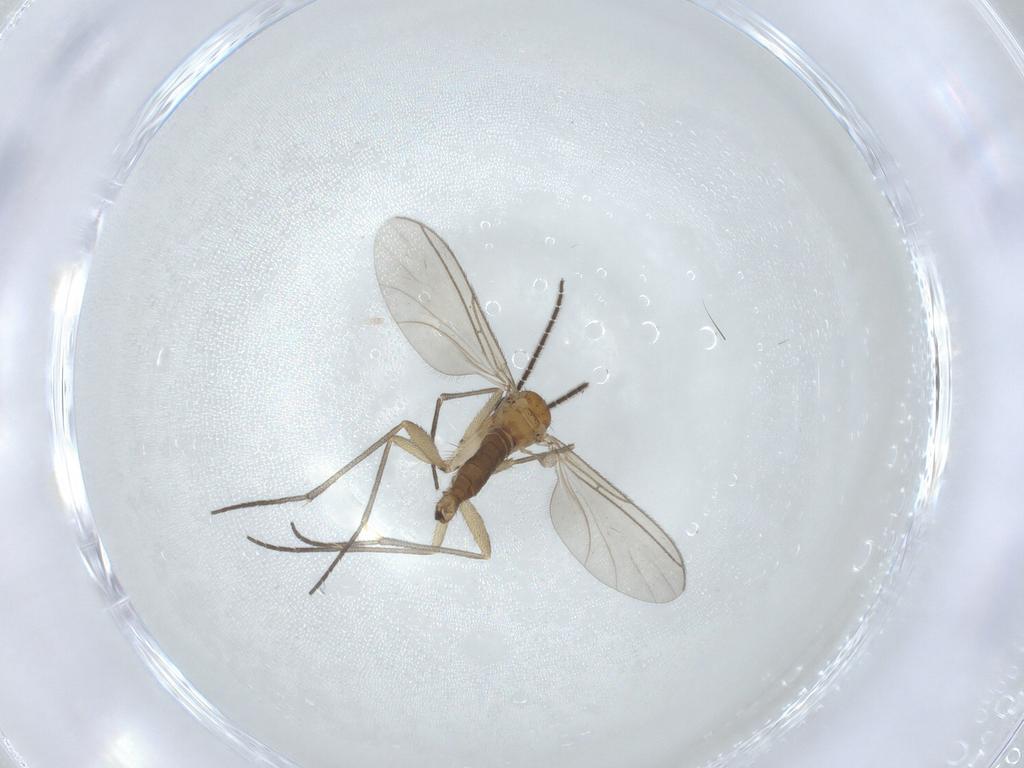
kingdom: Animalia
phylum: Arthropoda
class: Insecta
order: Diptera
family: Sciaridae
